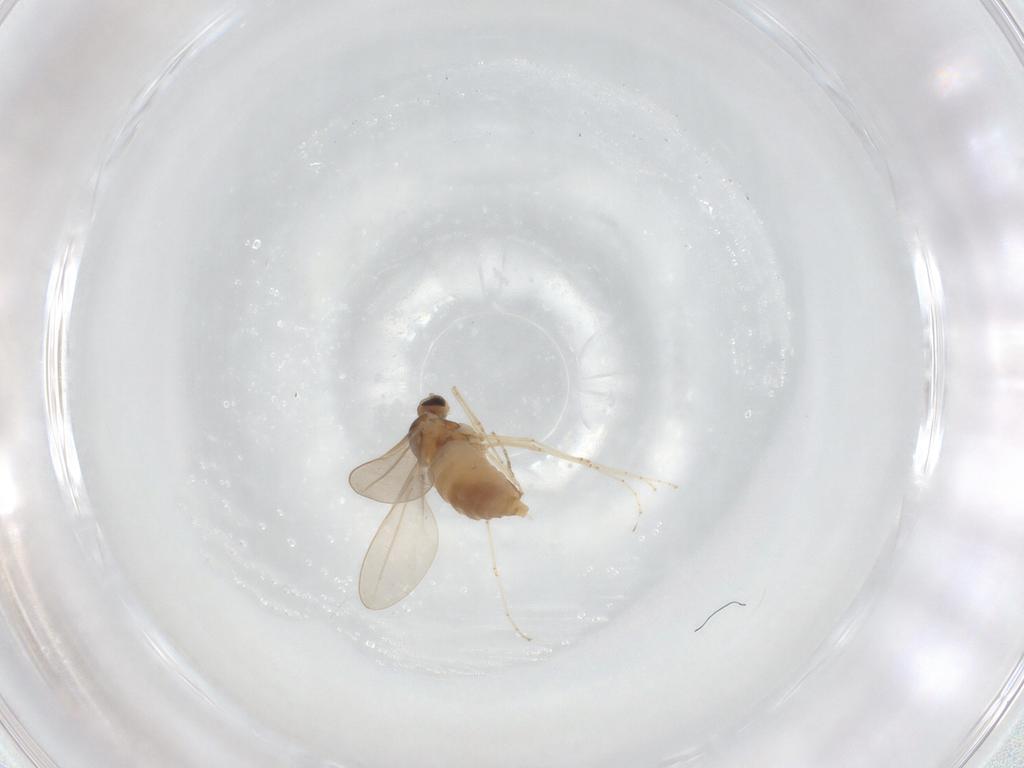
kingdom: Animalia
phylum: Arthropoda
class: Insecta
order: Diptera
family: Cecidomyiidae
